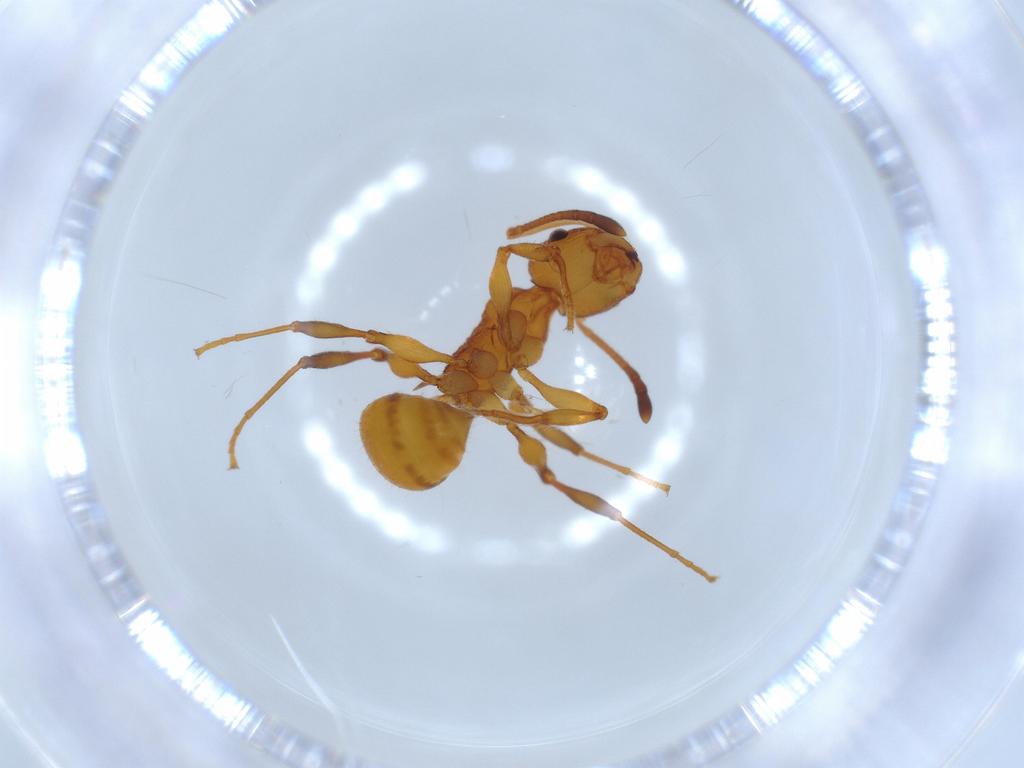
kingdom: Animalia
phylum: Arthropoda
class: Insecta
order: Hymenoptera
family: Formicidae
